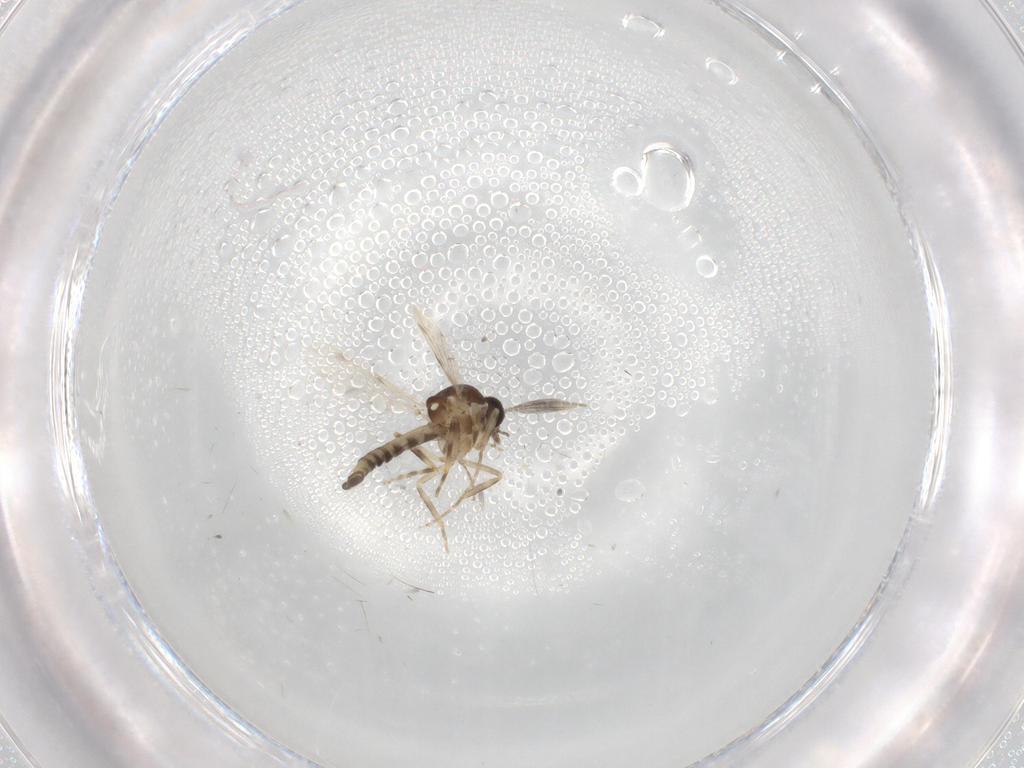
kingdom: Animalia
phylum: Arthropoda
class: Insecta
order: Diptera
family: Ceratopogonidae
